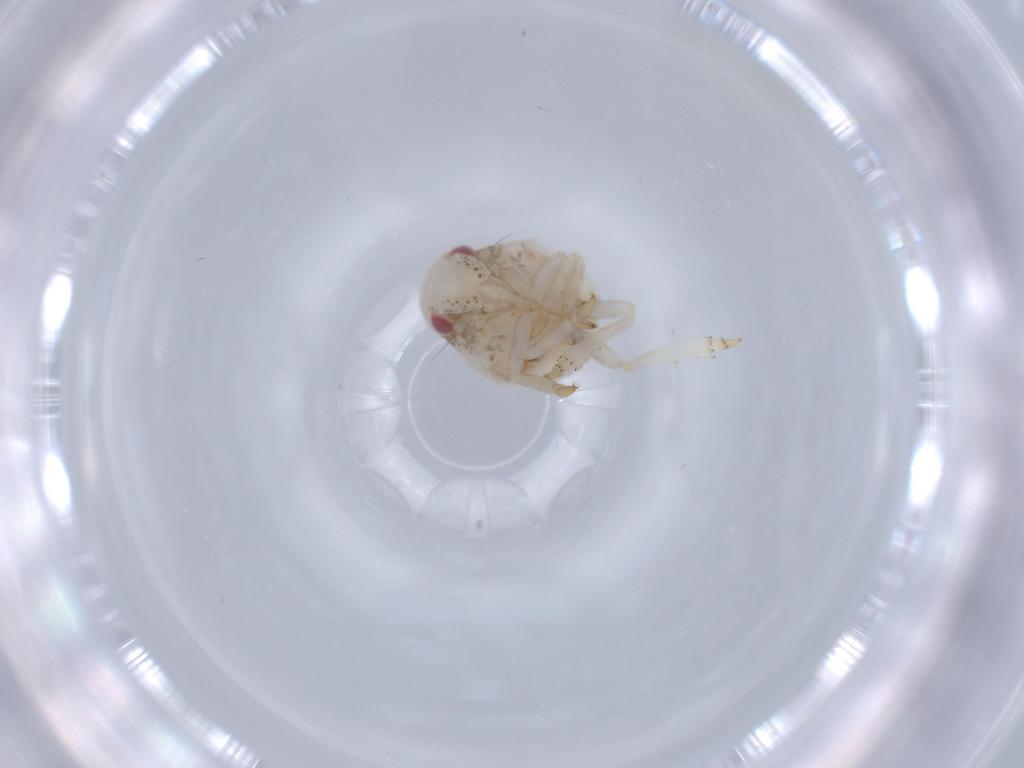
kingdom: Animalia
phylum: Arthropoda
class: Insecta
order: Hemiptera
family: Acanaloniidae
